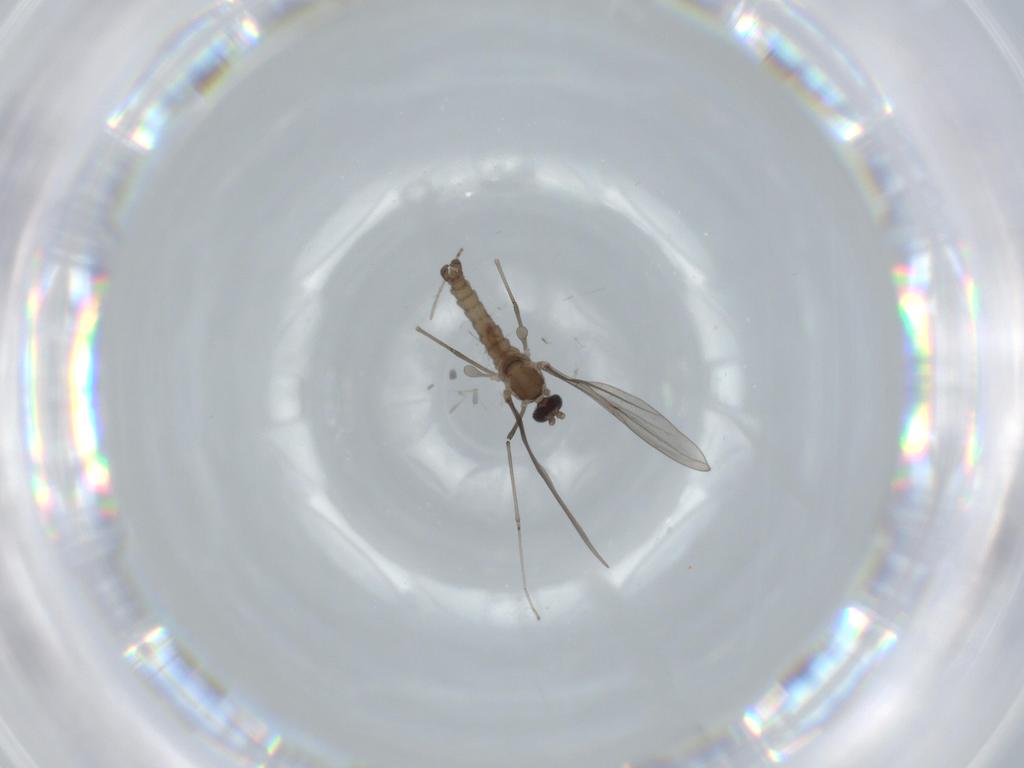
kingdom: Animalia
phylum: Arthropoda
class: Insecta
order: Diptera
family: Cecidomyiidae
